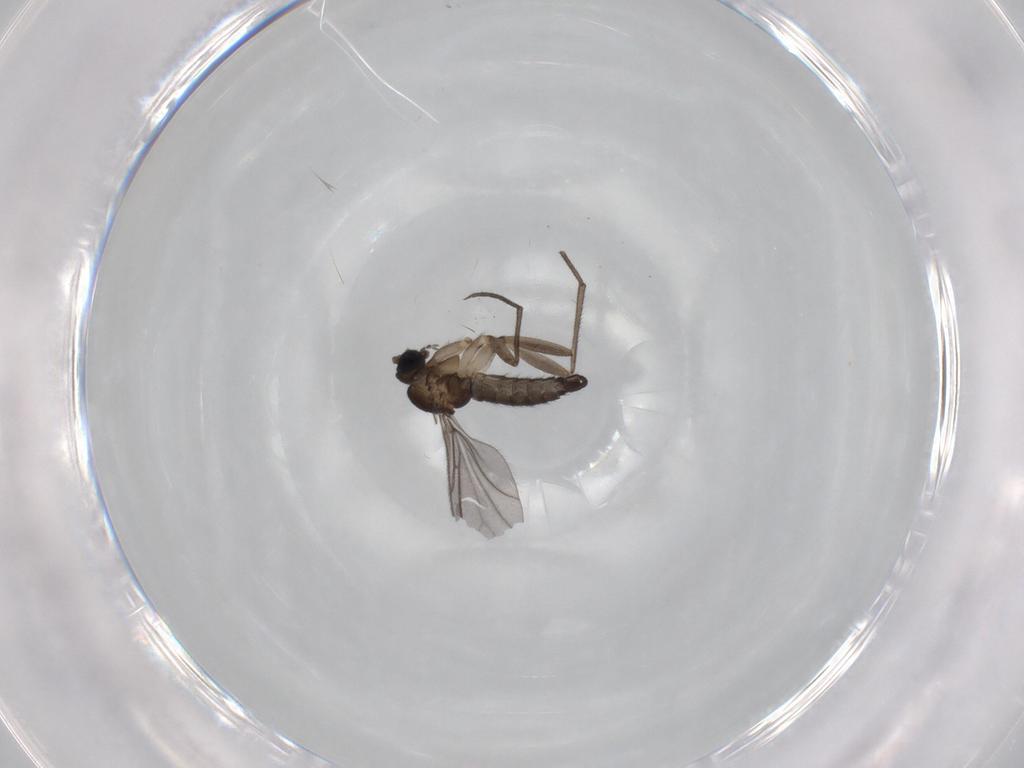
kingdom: Animalia
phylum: Arthropoda
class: Insecta
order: Diptera
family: Sciaridae
